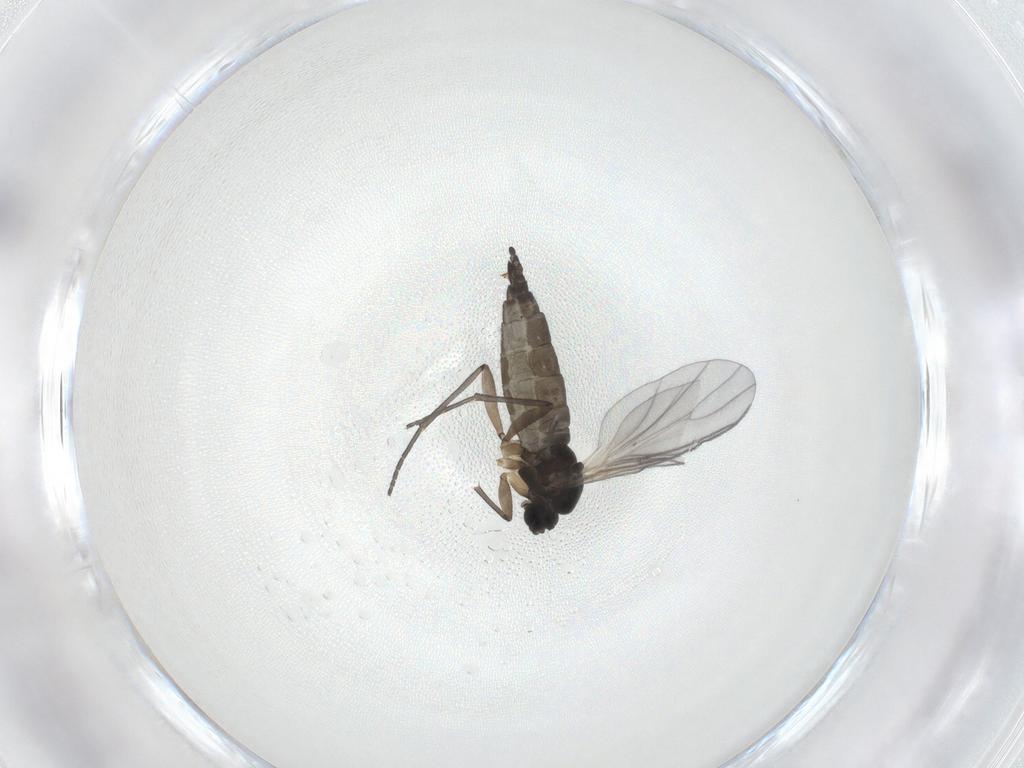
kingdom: Animalia
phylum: Arthropoda
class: Insecta
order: Diptera
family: Sciaridae
